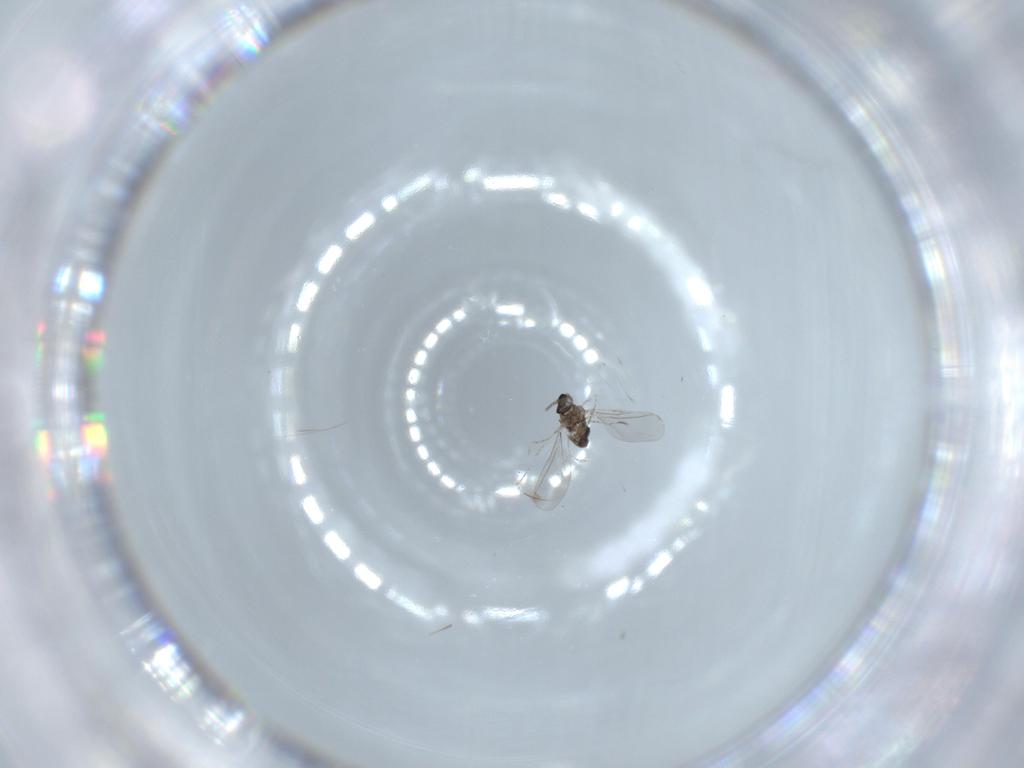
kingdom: Animalia
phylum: Arthropoda
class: Insecta
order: Diptera
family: Cecidomyiidae
